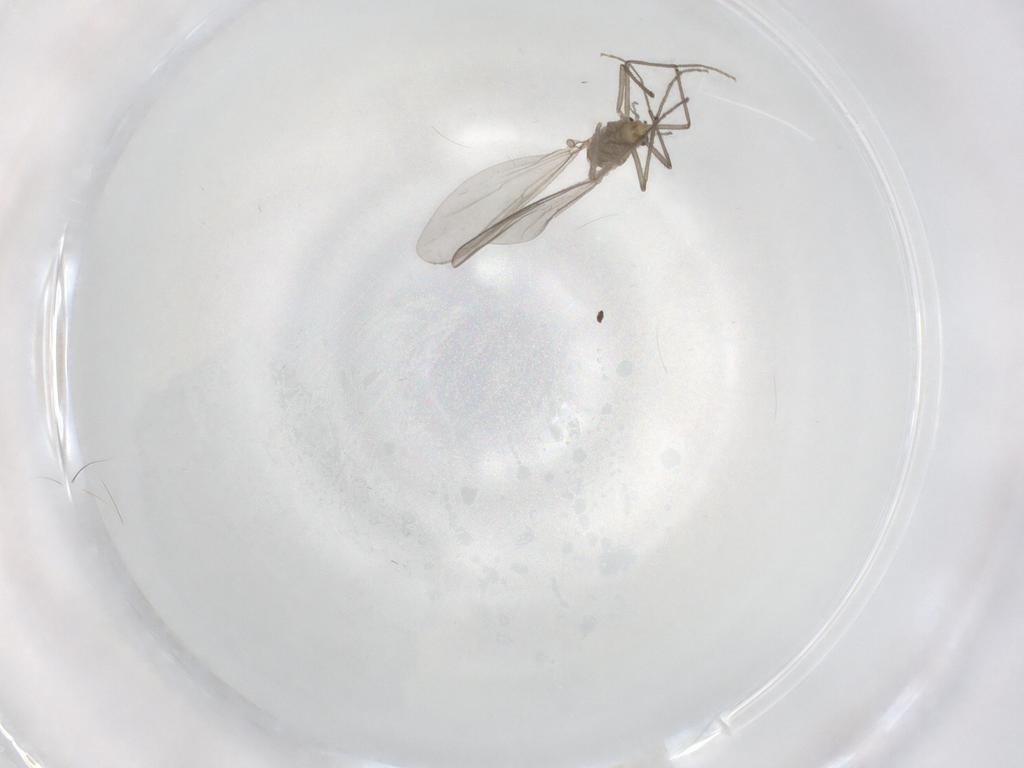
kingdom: Animalia
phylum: Arthropoda
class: Insecta
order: Diptera
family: Chironomidae
